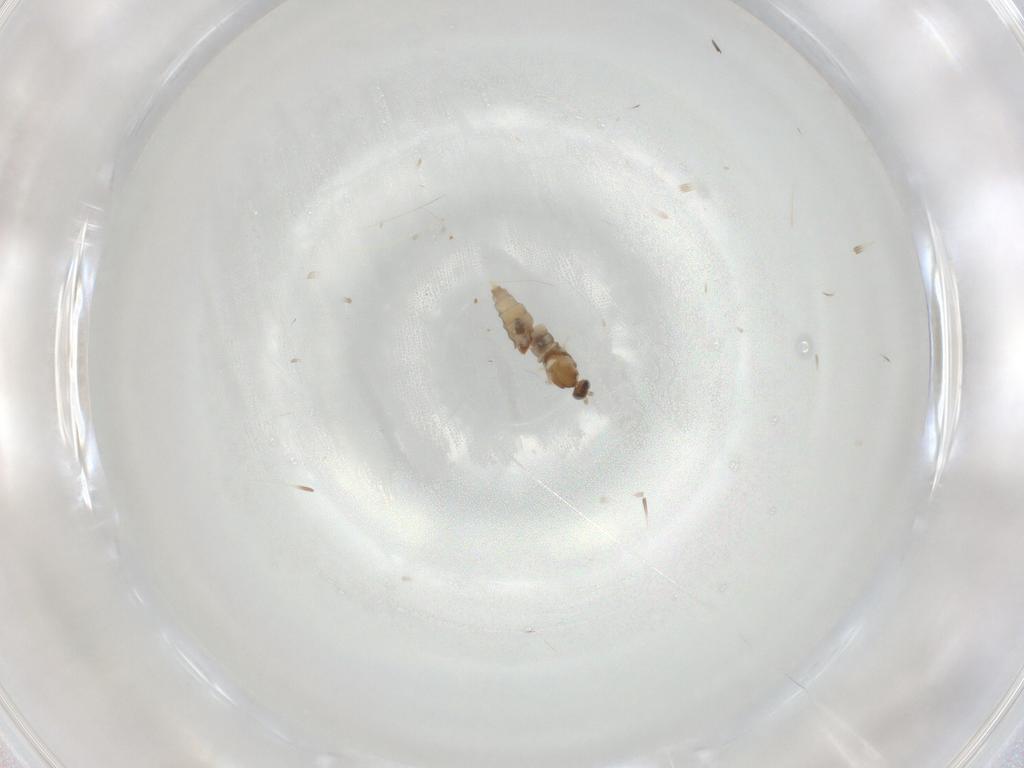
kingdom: Animalia
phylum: Arthropoda
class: Insecta
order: Diptera
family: Cecidomyiidae
